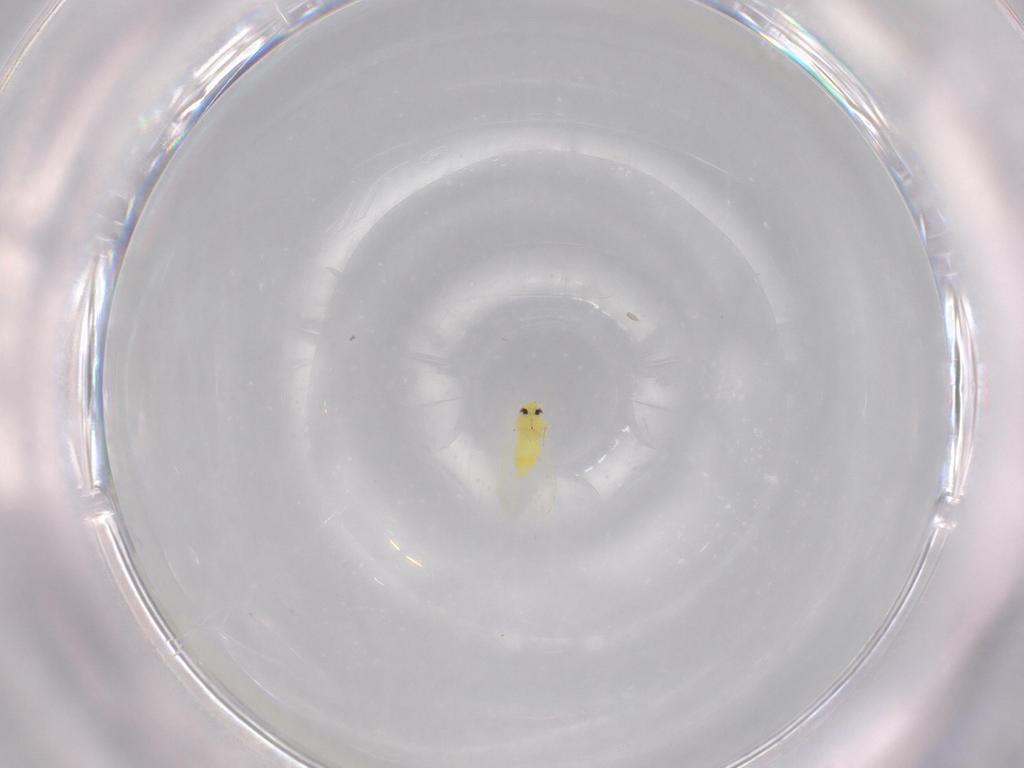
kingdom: Animalia
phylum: Arthropoda
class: Insecta
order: Hemiptera
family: Aleyrodidae
